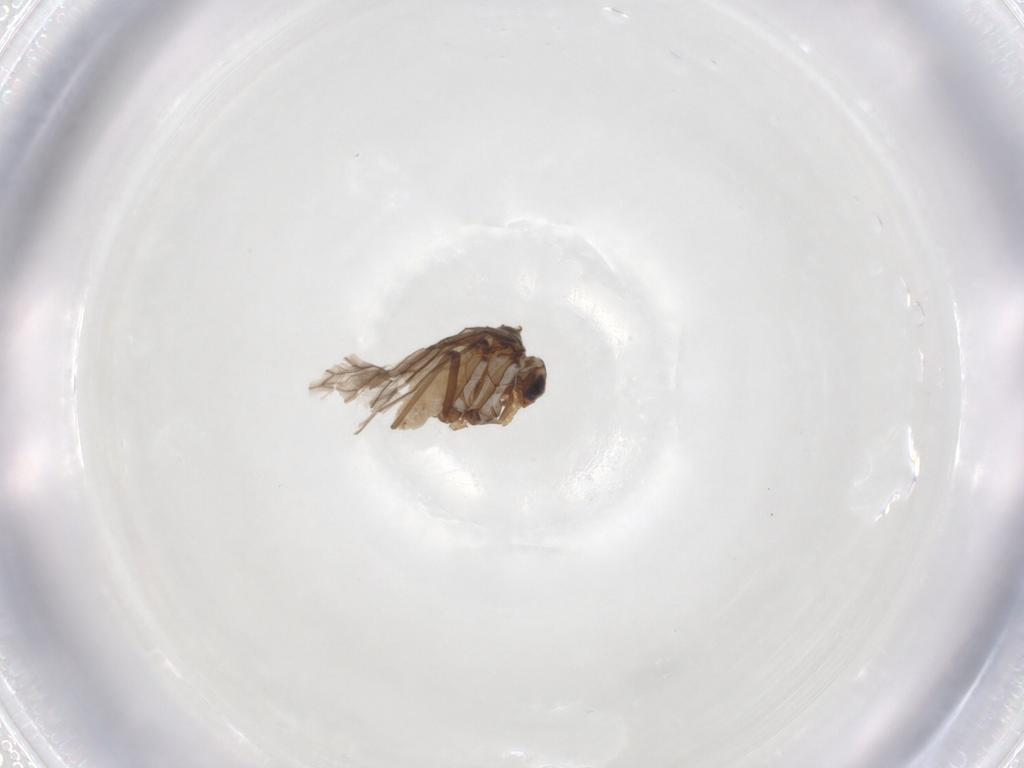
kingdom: Animalia
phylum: Arthropoda
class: Insecta
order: Neuroptera
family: Coniopterygidae
